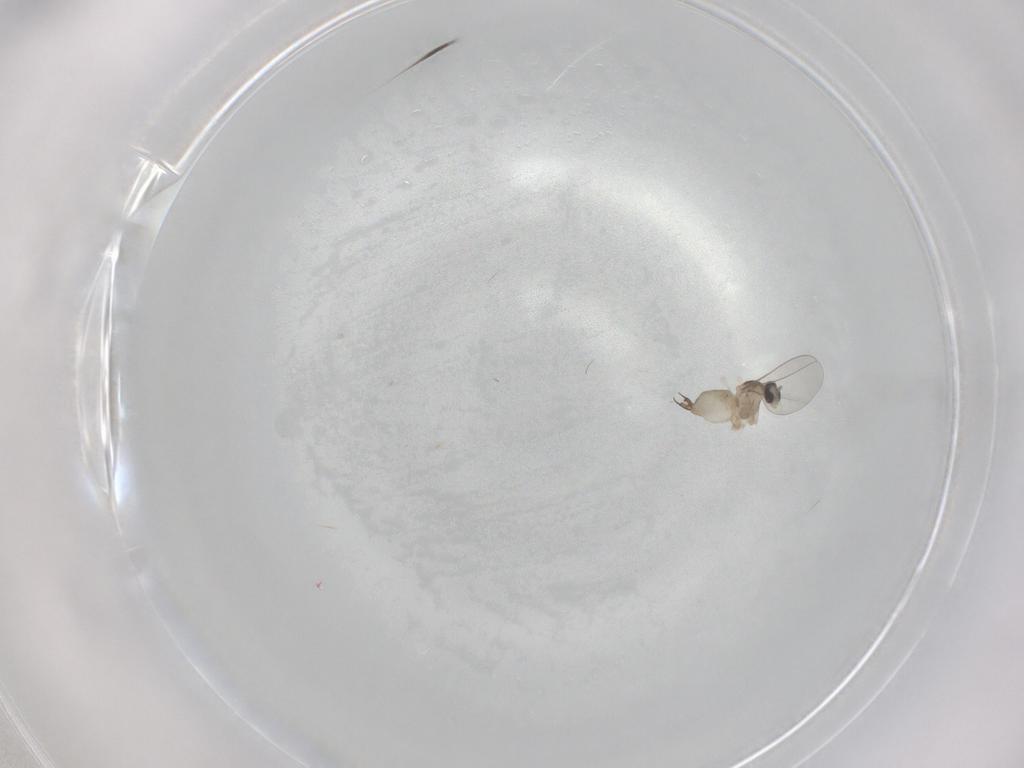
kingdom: Animalia
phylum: Arthropoda
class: Insecta
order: Diptera
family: Cecidomyiidae
